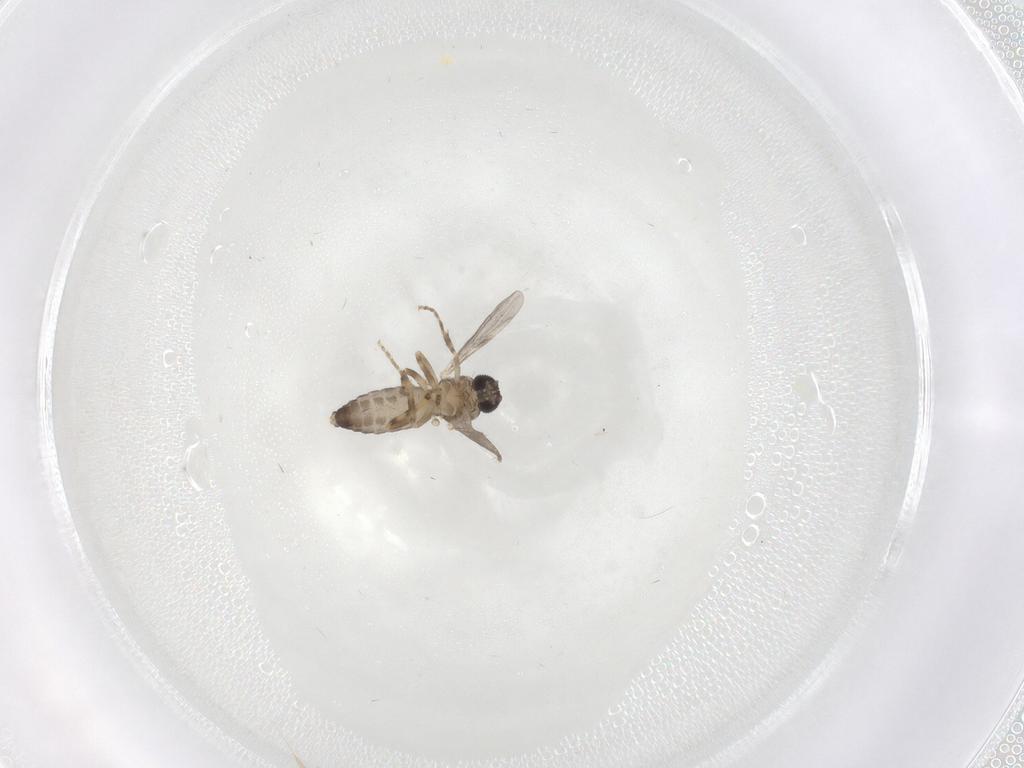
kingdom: Animalia
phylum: Arthropoda
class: Insecta
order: Diptera
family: Ceratopogonidae
